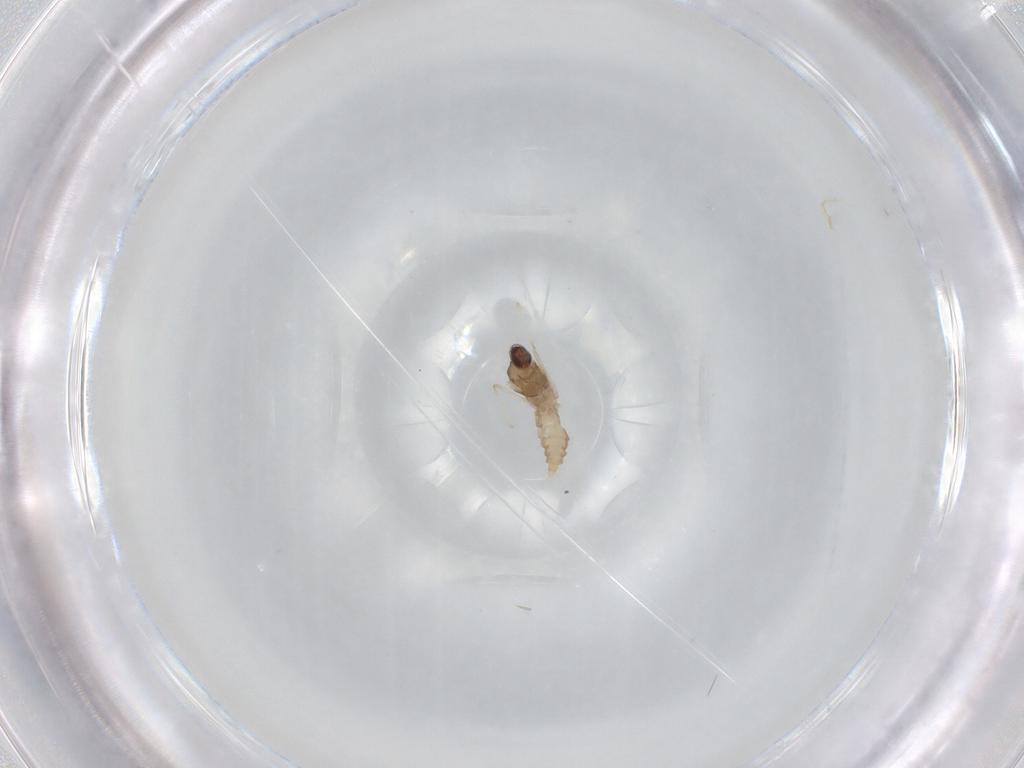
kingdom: Animalia
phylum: Arthropoda
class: Insecta
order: Diptera
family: Cecidomyiidae
